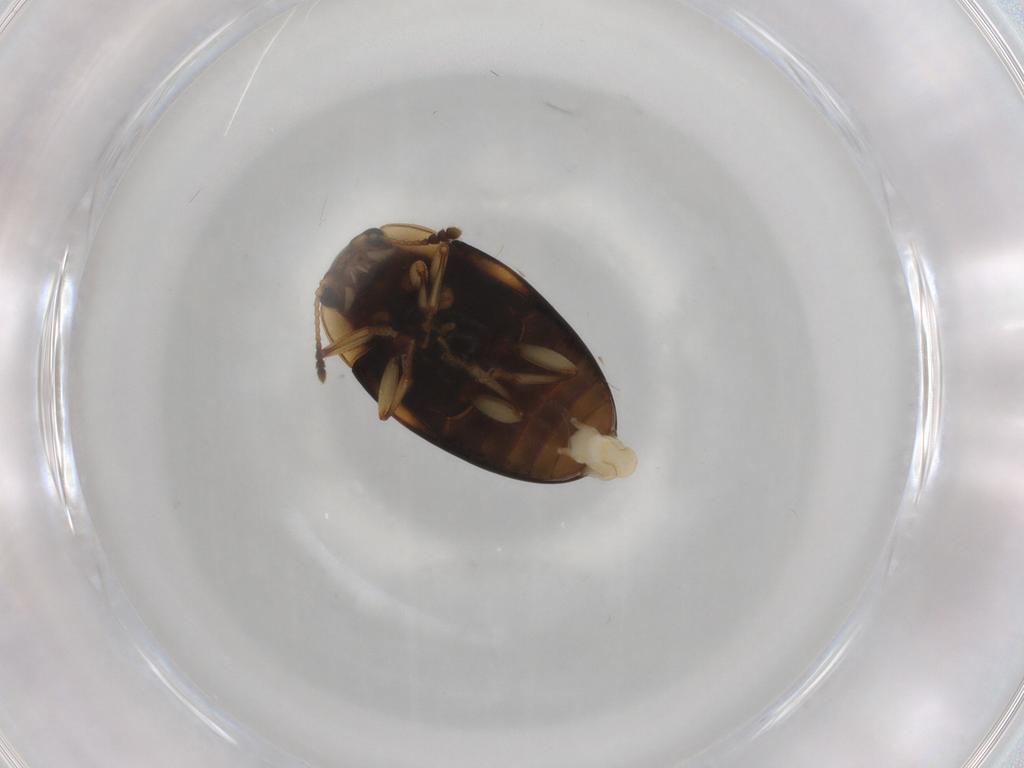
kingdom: Animalia
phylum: Arthropoda
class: Insecta
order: Coleoptera
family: Erotylidae
